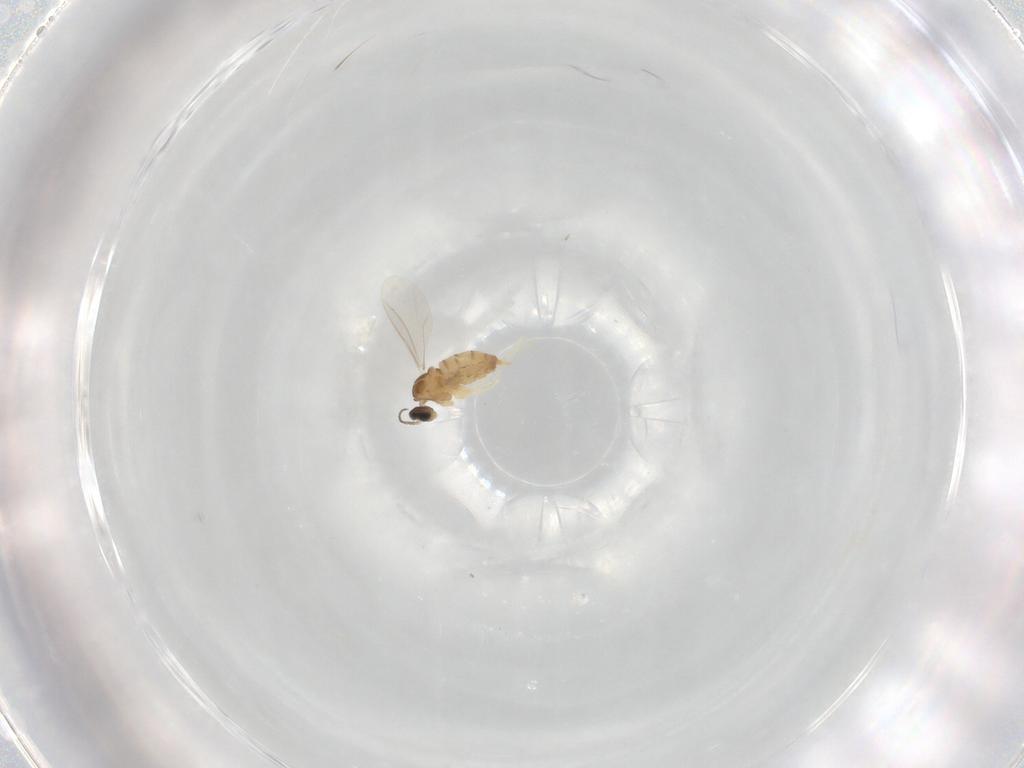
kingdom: Animalia
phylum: Arthropoda
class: Insecta
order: Diptera
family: Cecidomyiidae
